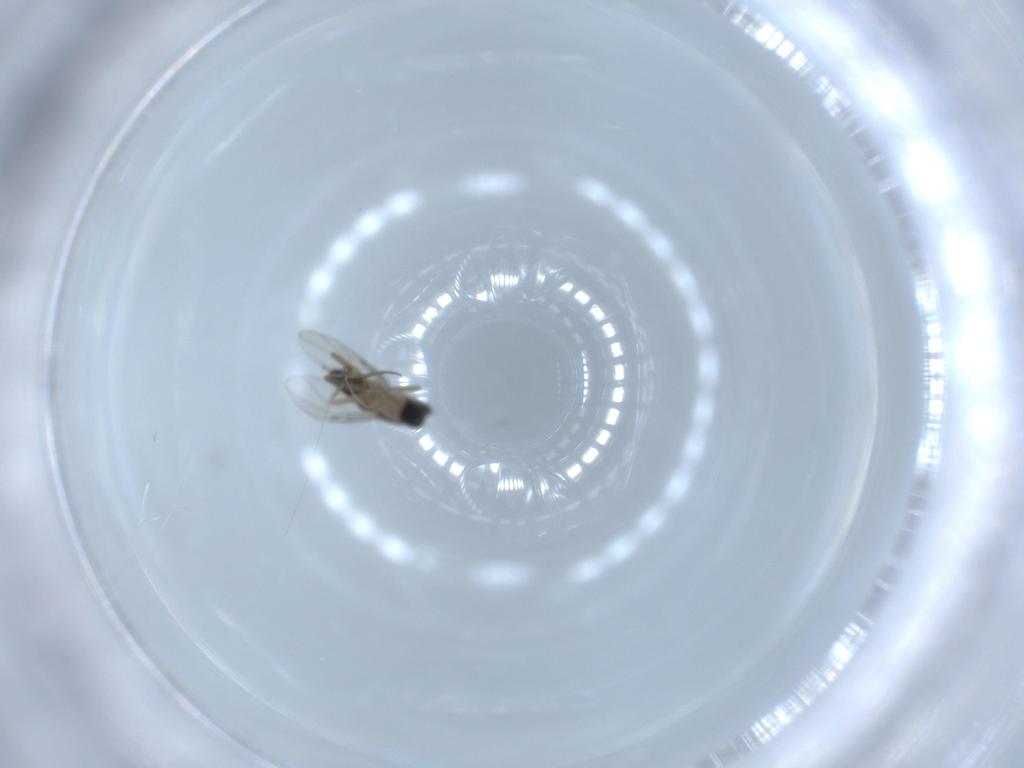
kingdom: Animalia
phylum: Arthropoda
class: Insecta
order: Diptera
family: Phoridae
